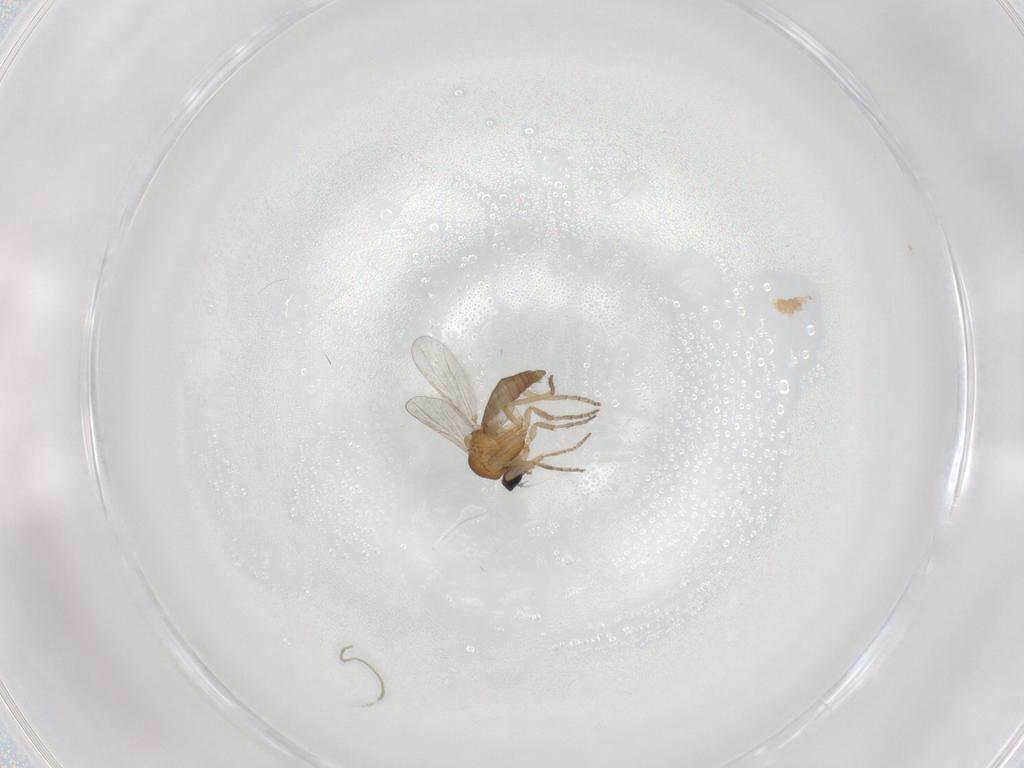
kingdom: Animalia
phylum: Arthropoda
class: Insecta
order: Diptera
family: Ceratopogonidae
